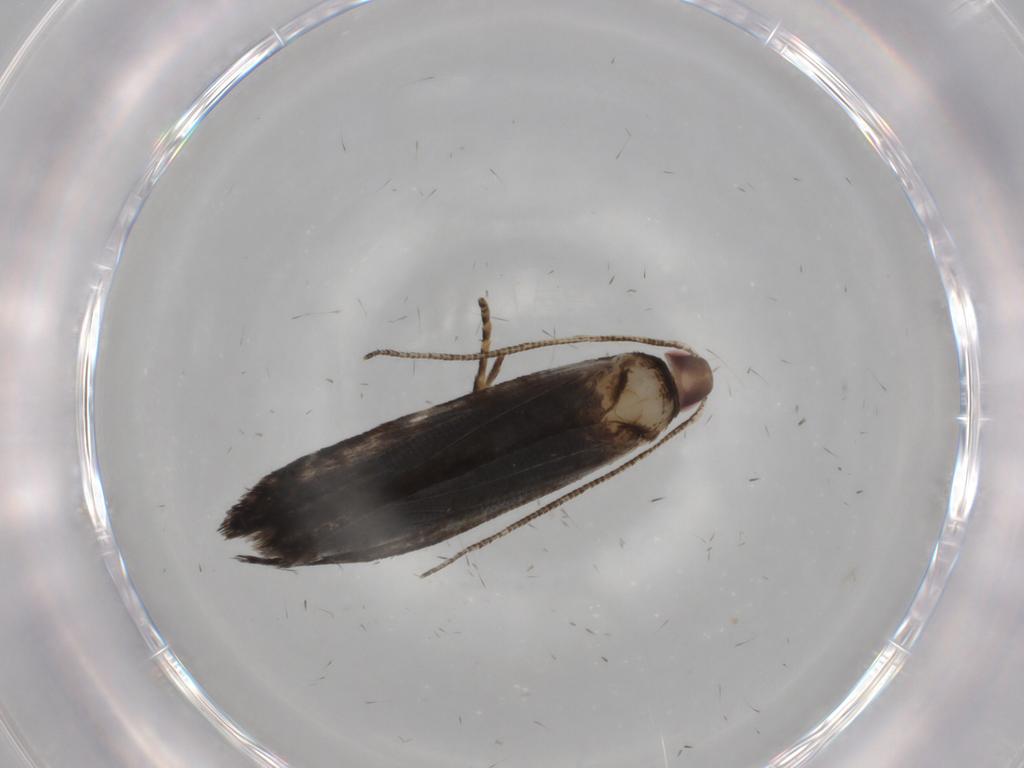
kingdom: Animalia
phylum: Arthropoda
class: Insecta
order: Lepidoptera
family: Gelechiidae
